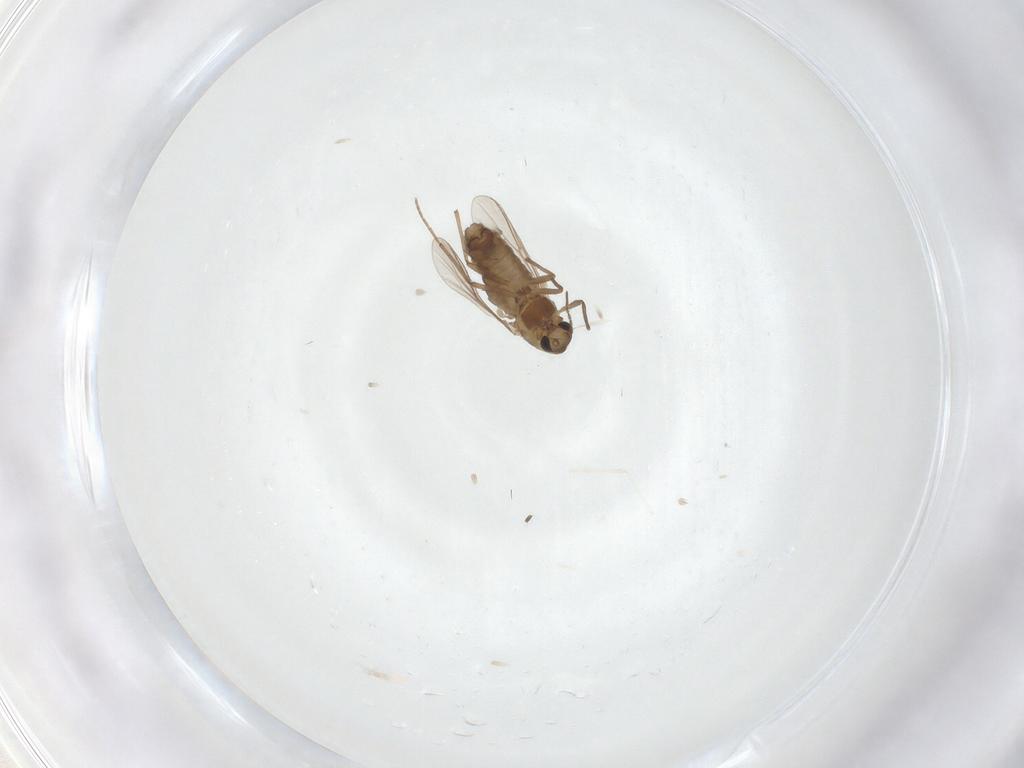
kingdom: Animalia
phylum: Arthropoda
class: Insecta
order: Diptera
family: Chironomidae
